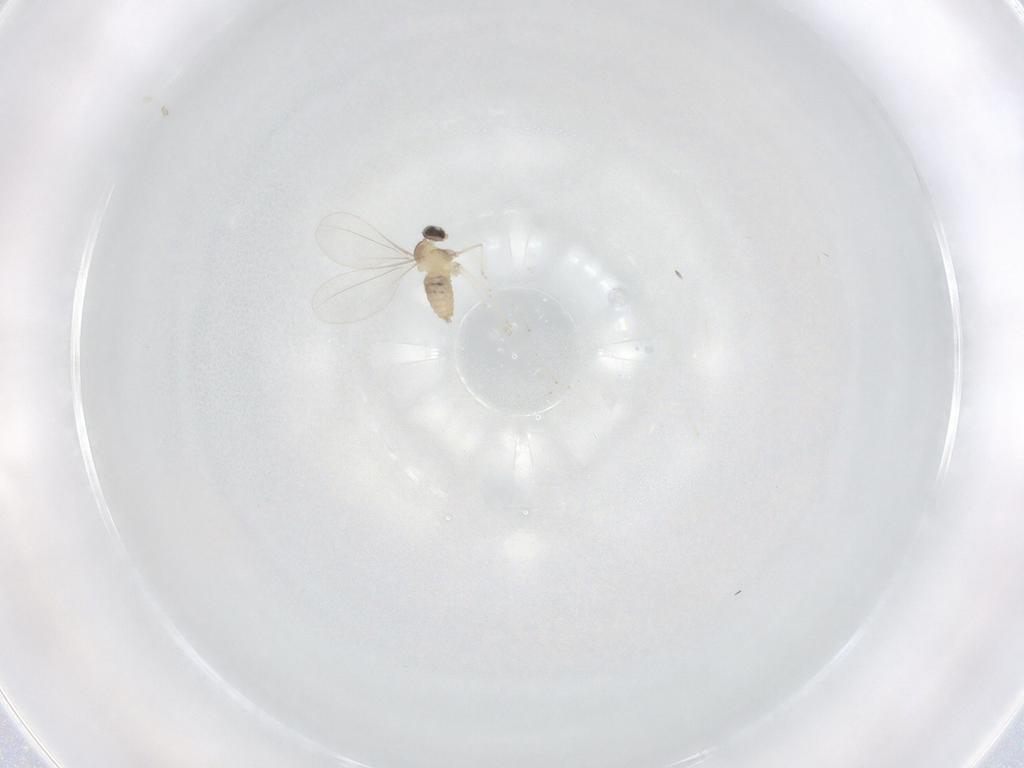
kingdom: Animalia
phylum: Arthropoda
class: Insecta
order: Diptera
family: Cecidomyiidae
